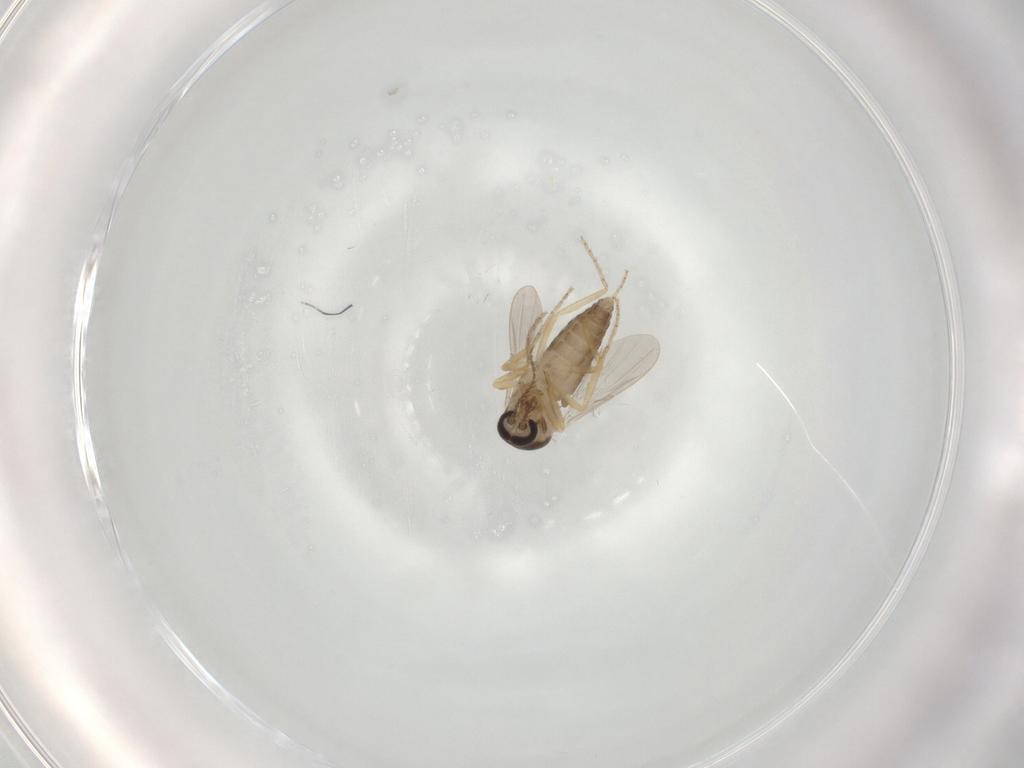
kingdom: Animalia
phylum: Arthropoda
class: Insecta
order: Diptera
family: Ceratopogonidae
